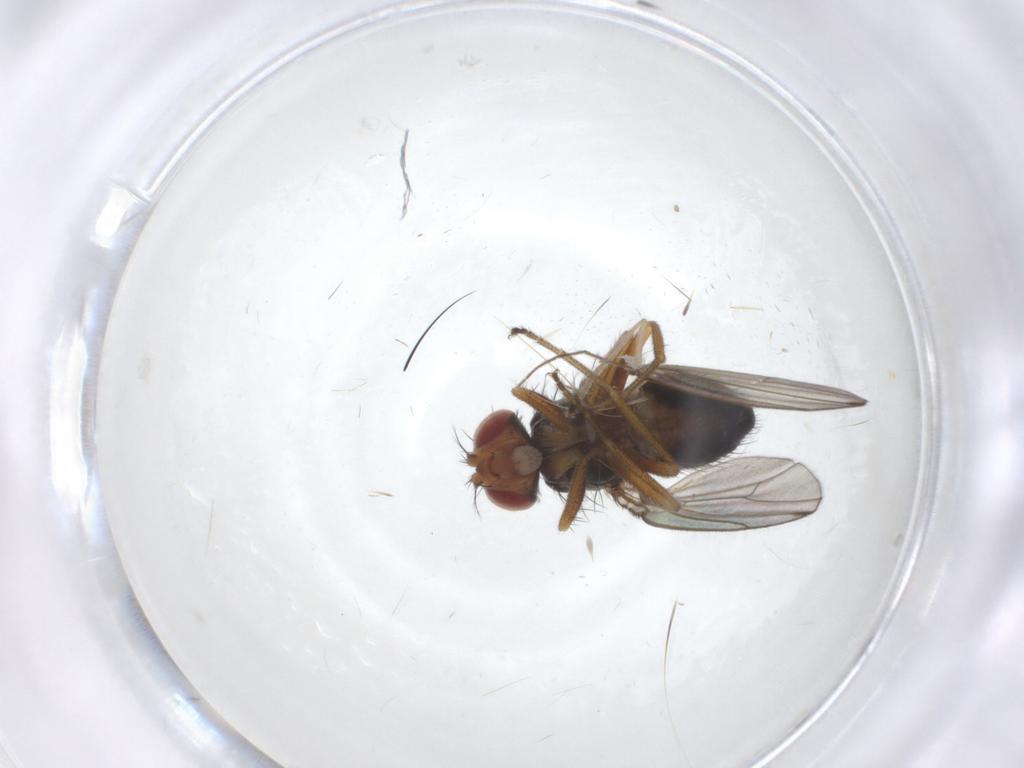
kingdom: Animalia
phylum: Arthropoda
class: Insecta
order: Diptera
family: Drosophilidae
